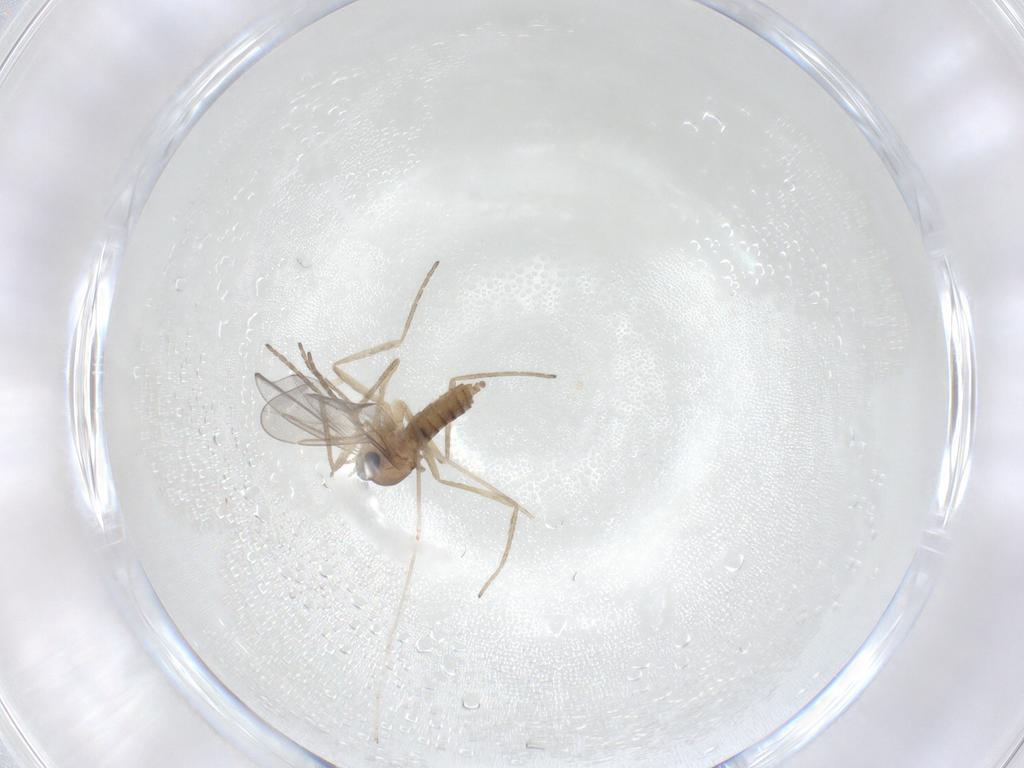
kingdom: Animalia
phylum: Arthropoda
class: Insecta
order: Diptera
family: Cecidomyiidae
